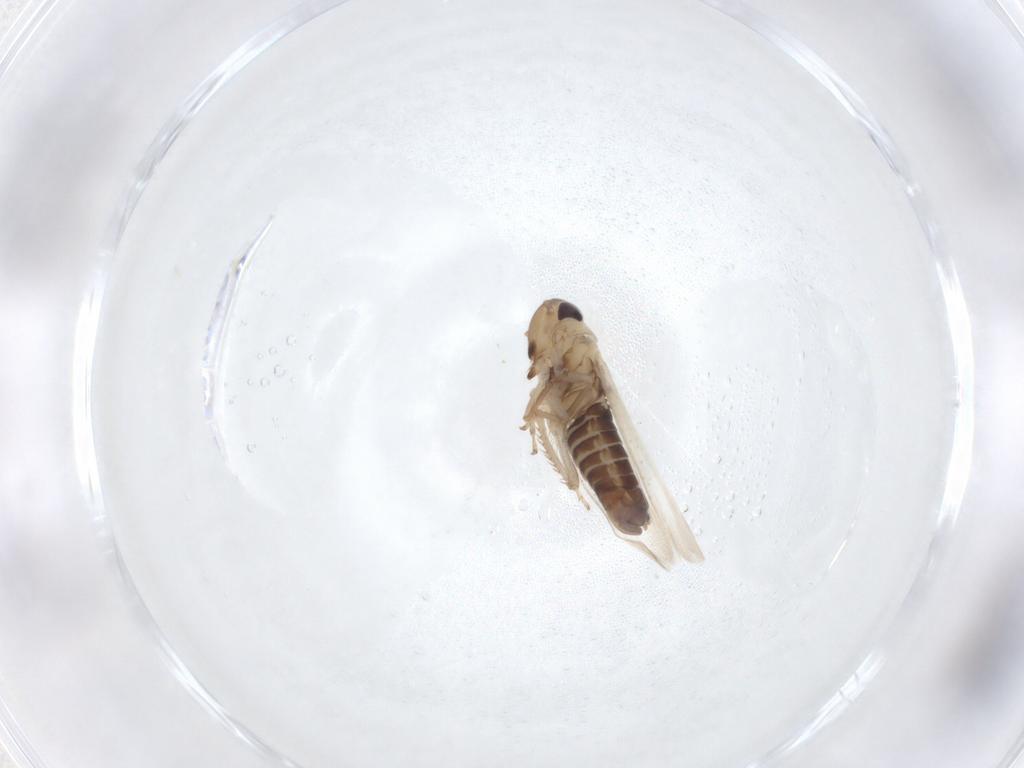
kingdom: Animalia
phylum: Arthropoda
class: Insecta
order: Hemiptera
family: Cicadellidae
